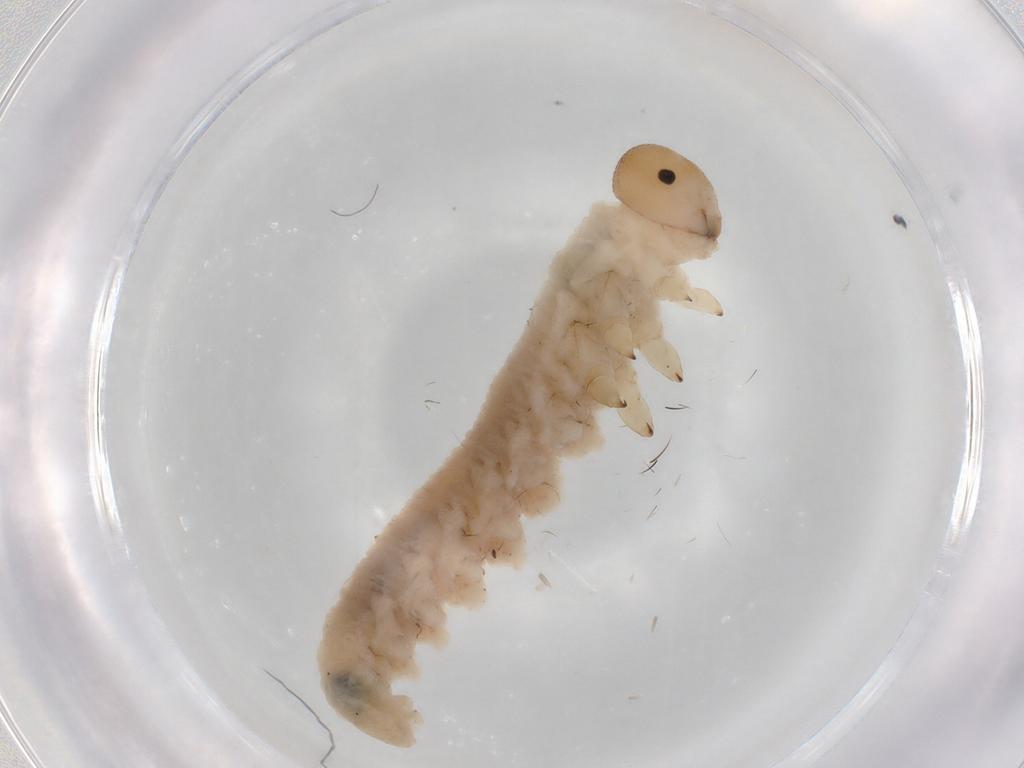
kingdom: Animalia
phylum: Arthropoda
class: Insecta
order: Hymenoptera
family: Tenthredinidae
